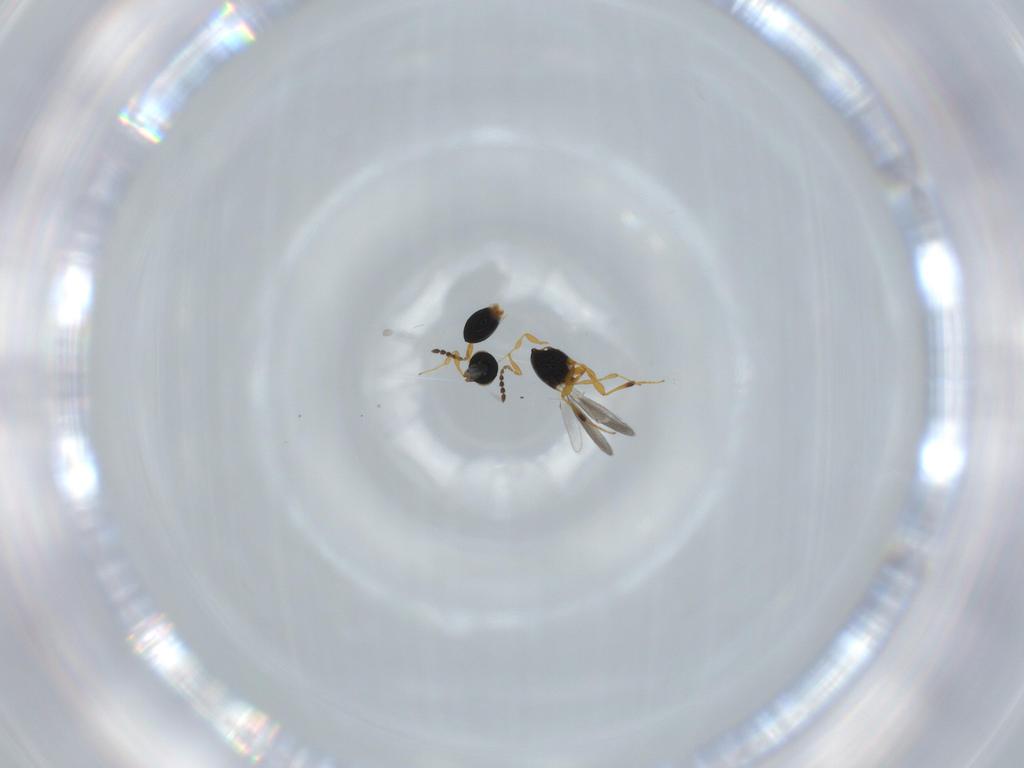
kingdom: Animalia
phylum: Arthropoda
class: Insecta
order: Hymenoptera
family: Platygastridae
